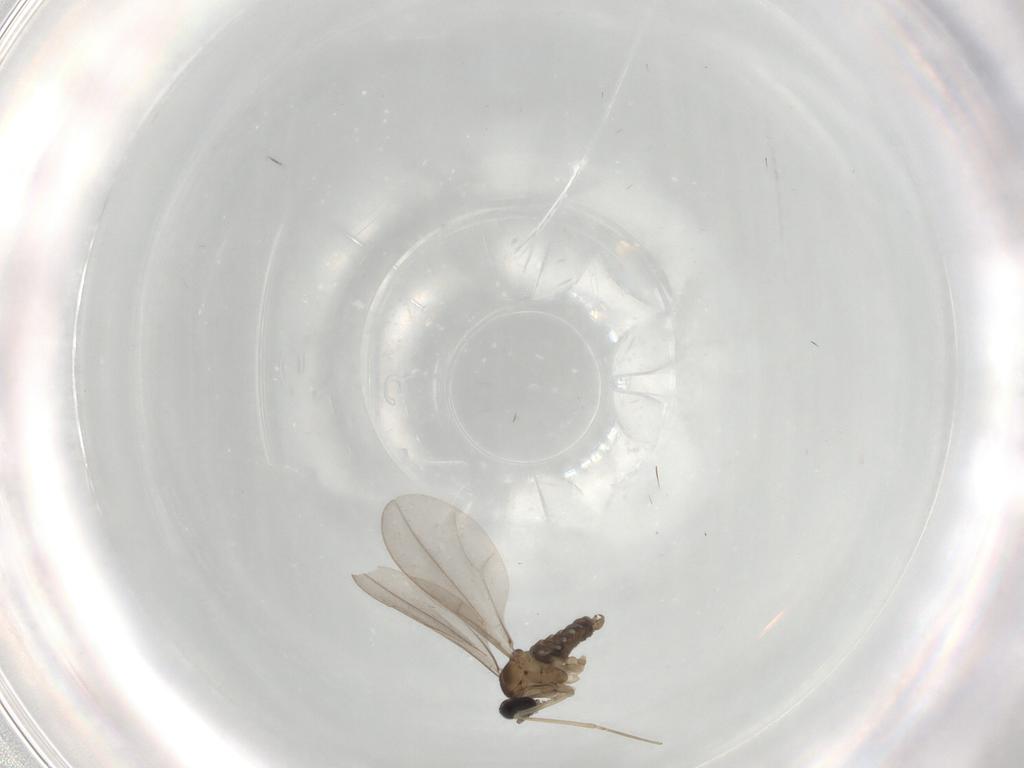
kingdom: Animalia
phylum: Arthropoda
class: Insecta
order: Diptera
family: Cecidomyiidae
